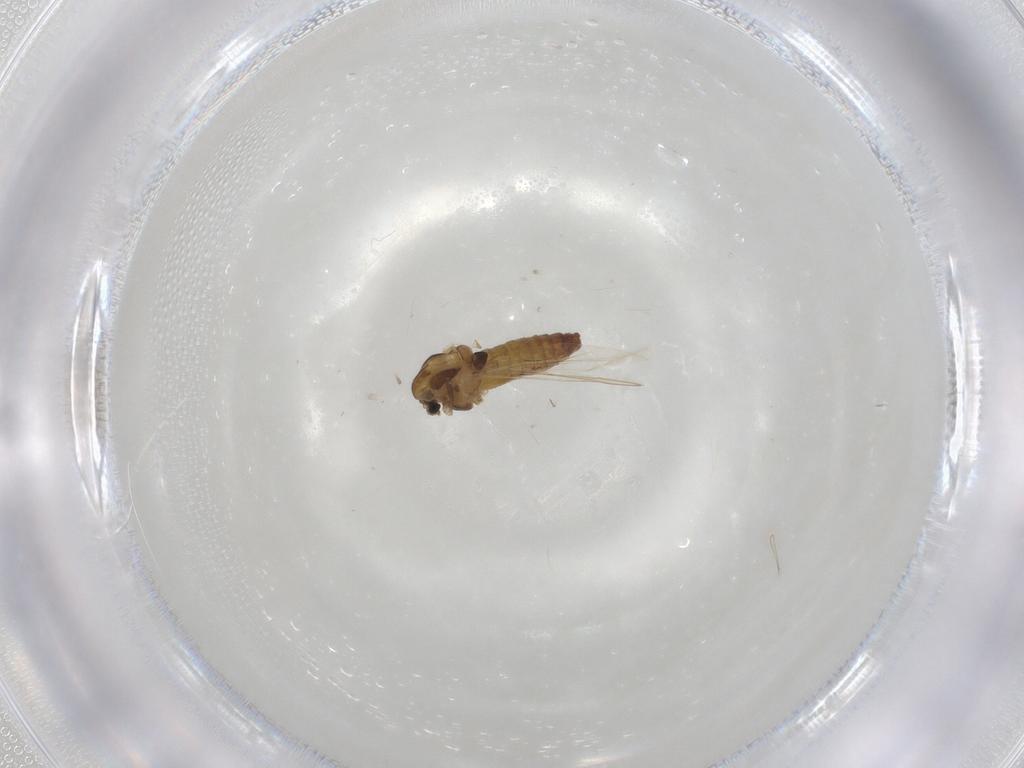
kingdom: Animalia
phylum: Arthropoda
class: Insecta
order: Diptera
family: Chironomidae
